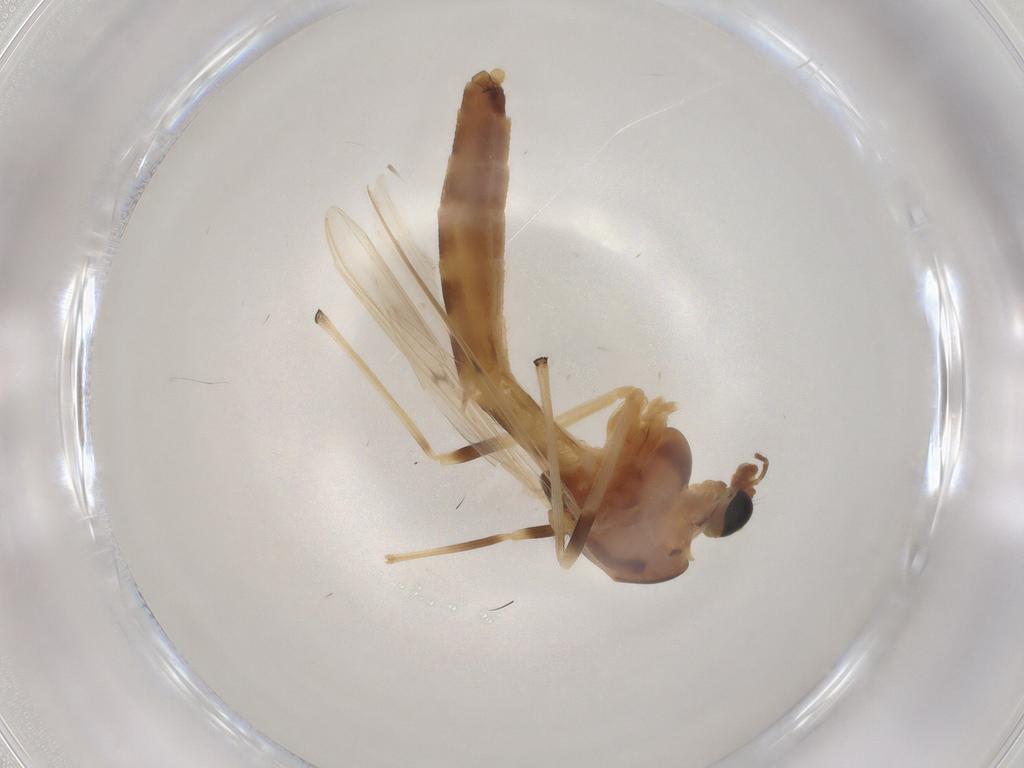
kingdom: Animalia
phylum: Arthropoda
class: Insecta
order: Diptera
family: Chironomidae
